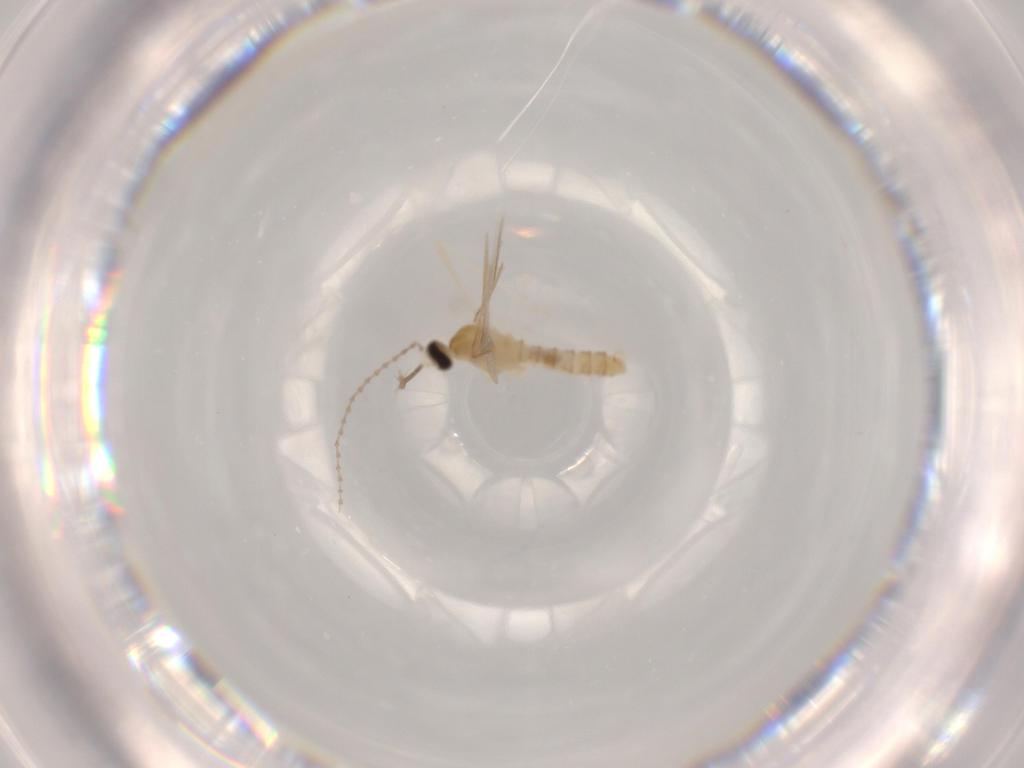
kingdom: Animalia
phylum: Arthropoda
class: Insecta
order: Diptera
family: Cecidomyiidae
